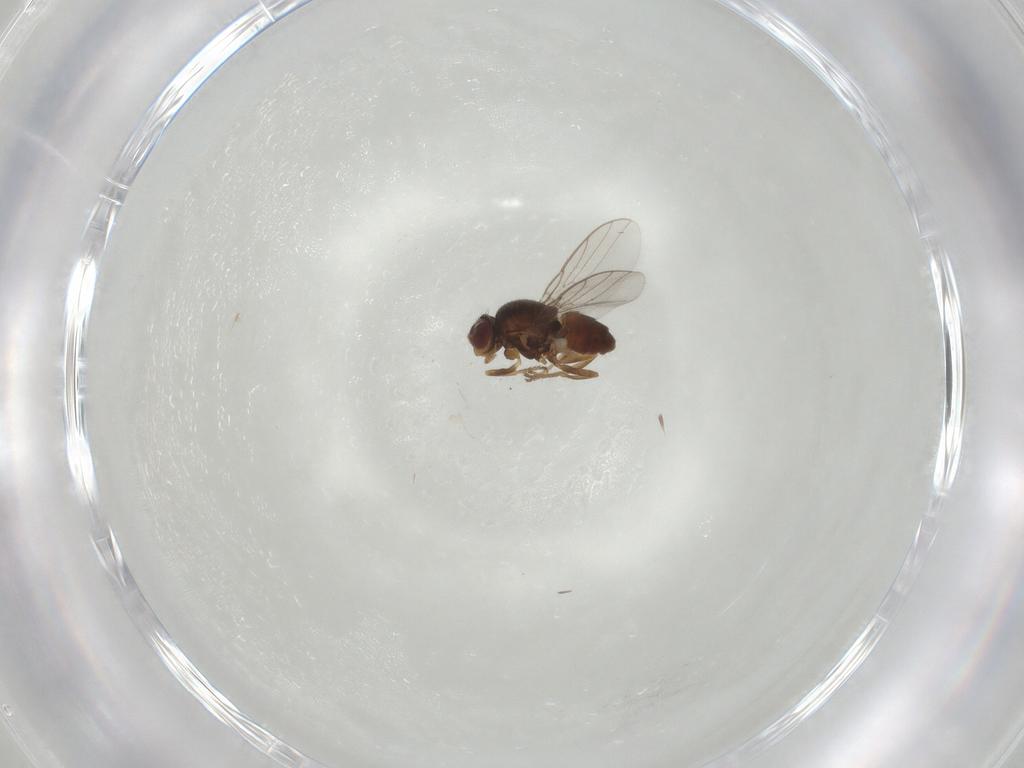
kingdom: Animalia
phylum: Arthropoda
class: Insecta
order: Diptera
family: Chloropidae
